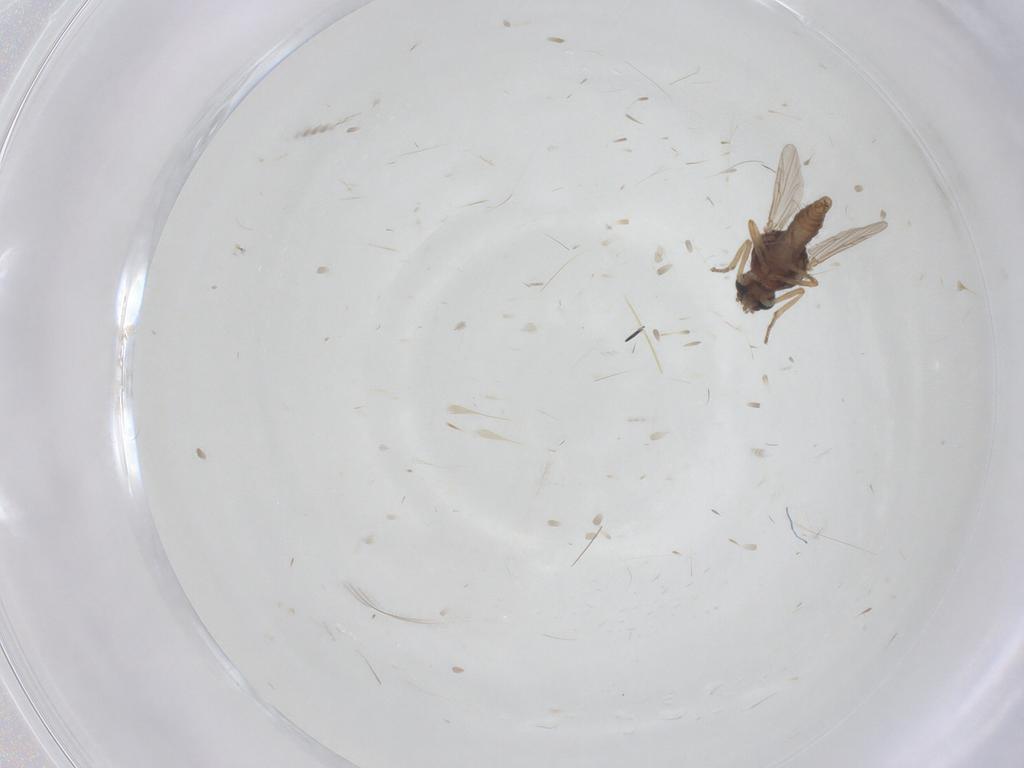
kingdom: Animalia
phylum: Arthropoda
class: Insecta
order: Diptera
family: Ceratopogonidae
